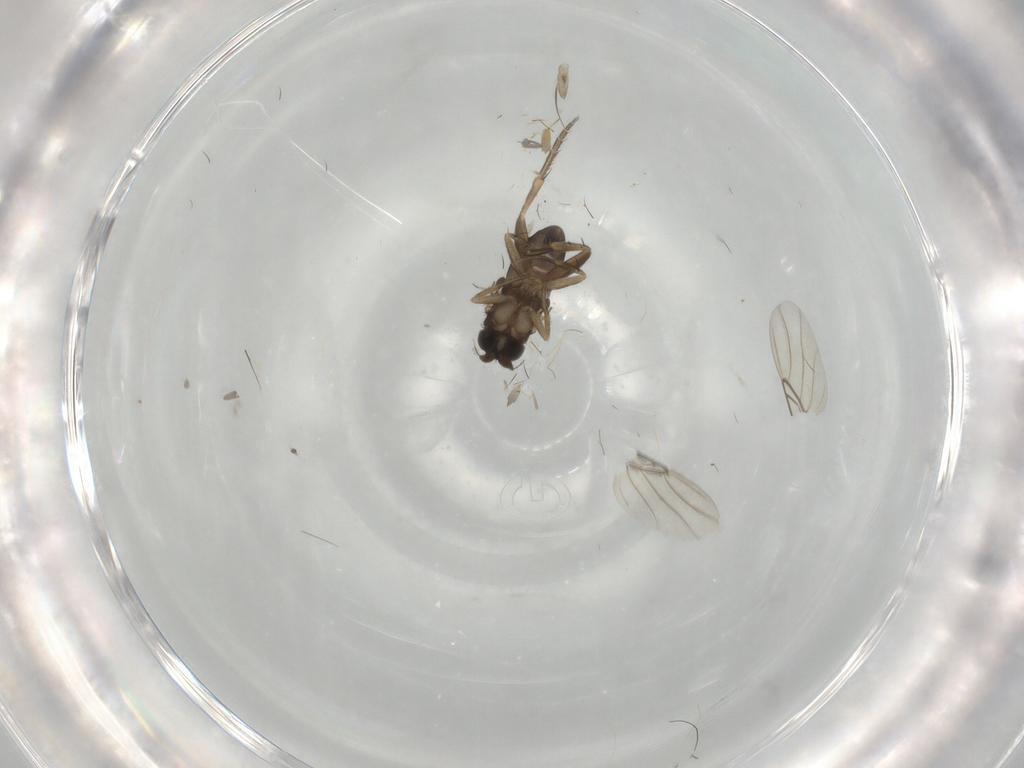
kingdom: Animalia
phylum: Arthropoda
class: Insecta
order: Diptera
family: Phoridae
